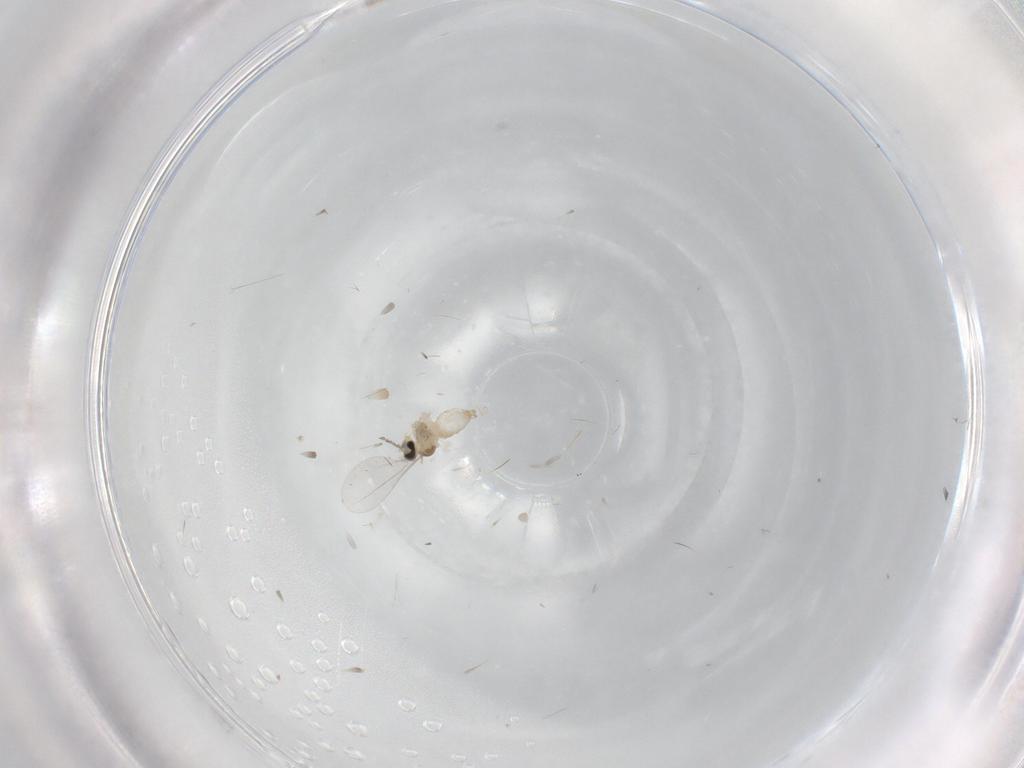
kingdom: Animalia
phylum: Arthropoda
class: Insecta
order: Diptera
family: Cecidomyiidae
